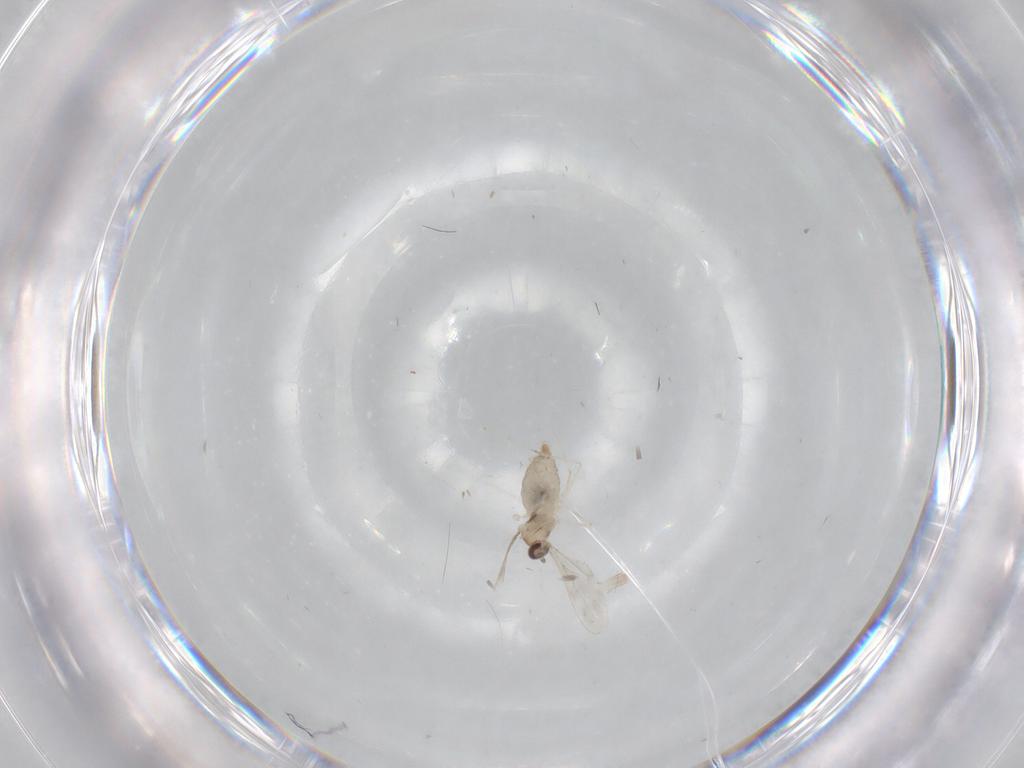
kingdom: Animalia
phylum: Arthropoda
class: Insecta
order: Diptera
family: Cecidomyiidae
